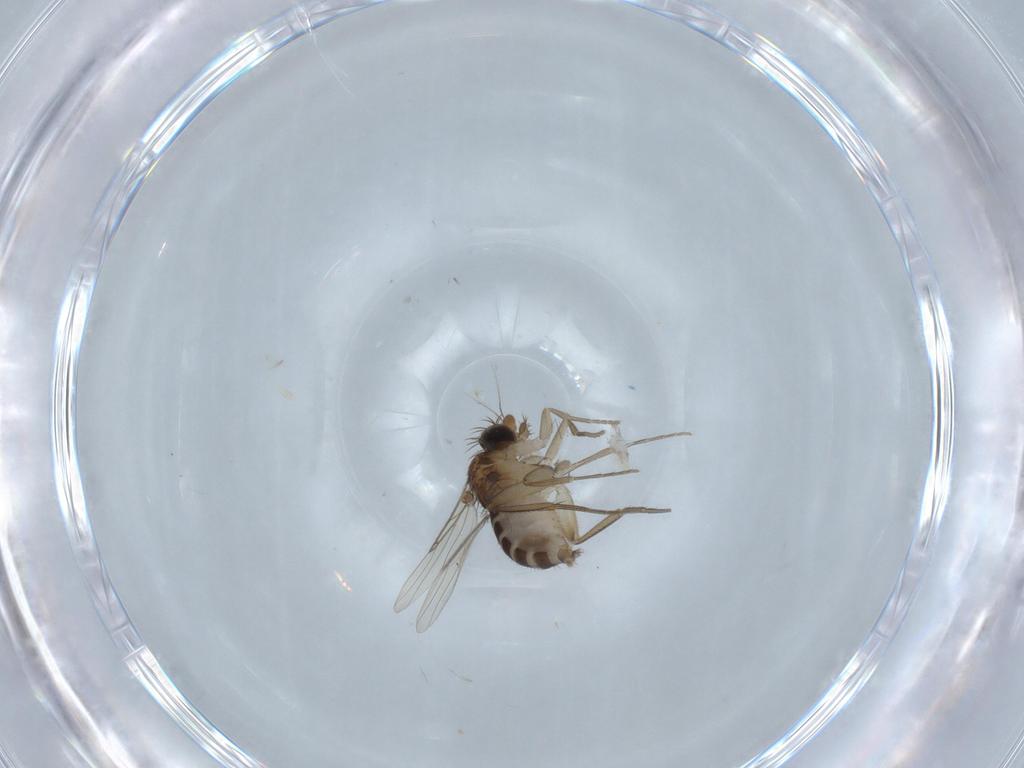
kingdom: Animalia
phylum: Arthropoda
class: Insecta
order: Diptera
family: Phoridae
